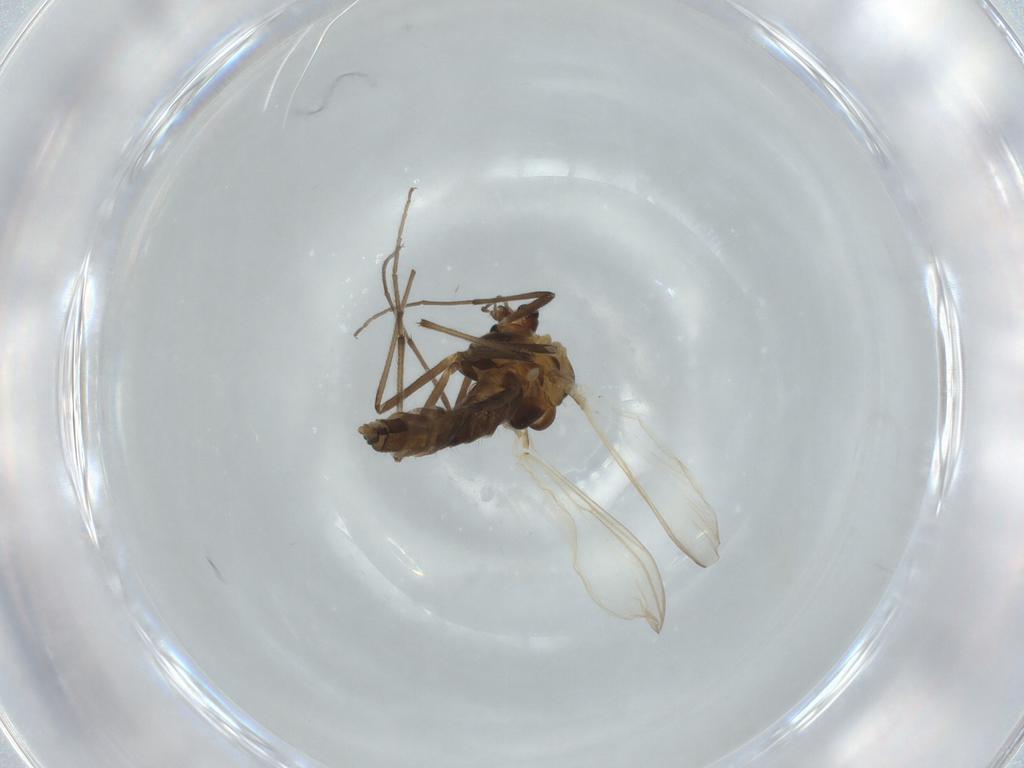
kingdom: Animalia
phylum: Arthropoda
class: Insecta
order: Diptera
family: Chironomidae
